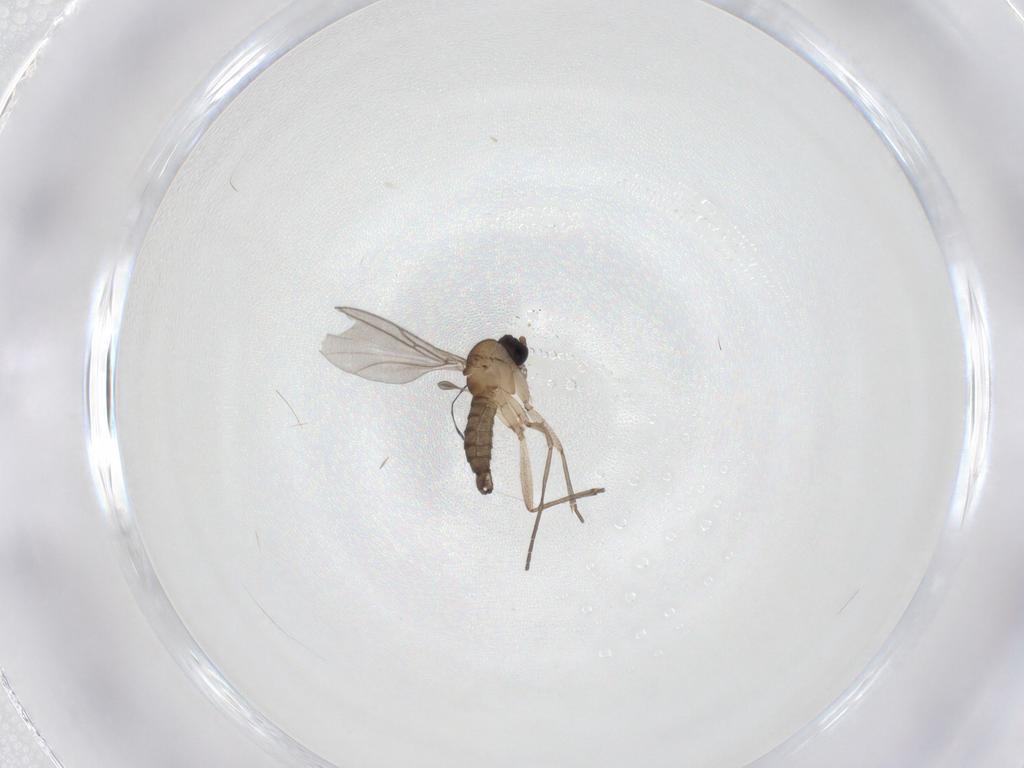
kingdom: Animalia
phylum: Arthropoda
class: Insecta
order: Diptera
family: Sciaridae
